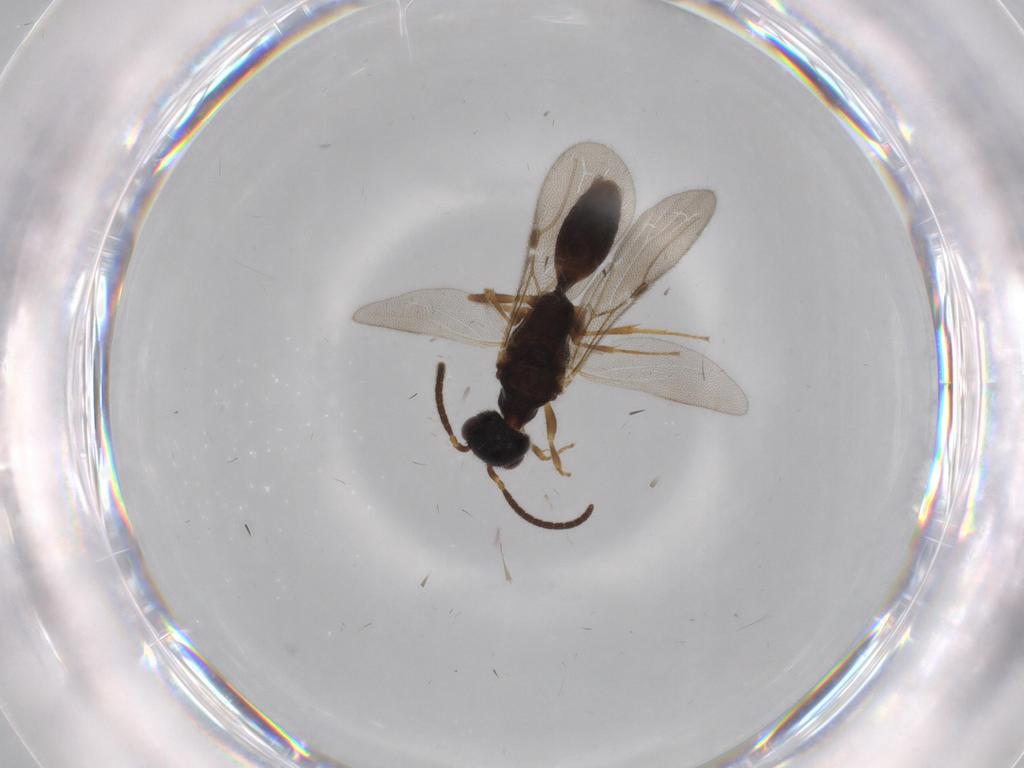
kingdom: Animalia
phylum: Arthropoda
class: Insecta
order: Hymenoptera
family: Bethylidae
